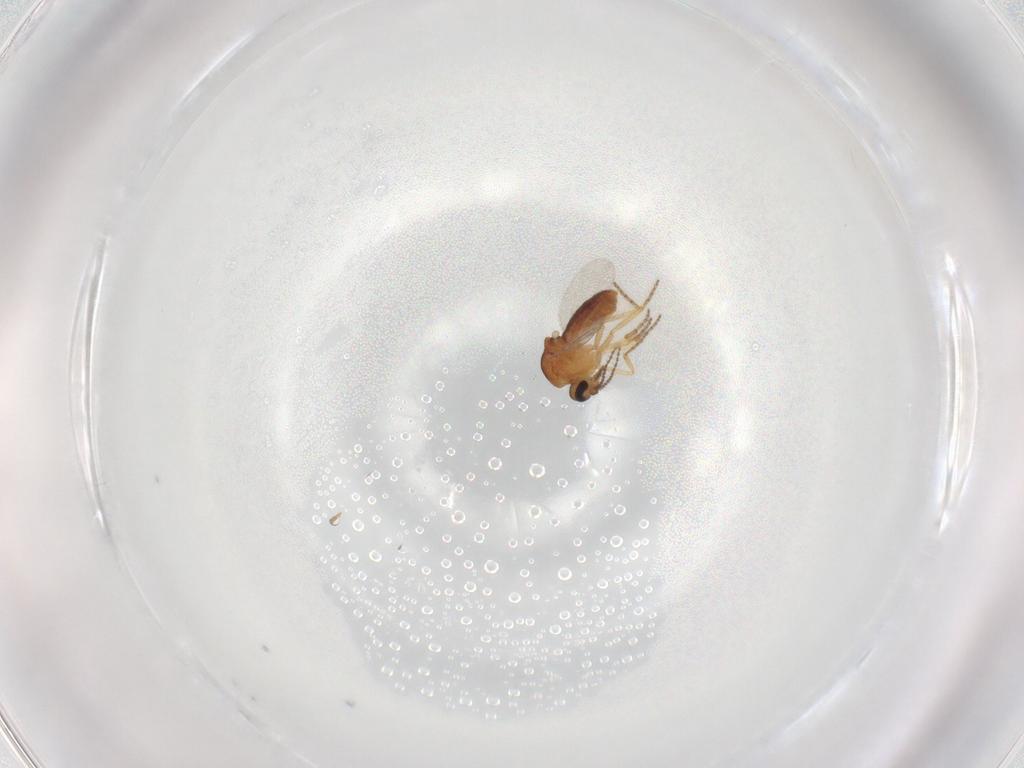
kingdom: Animalia
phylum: Arthropoda
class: Insecta
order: Diptera
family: Ceratopogonidae
